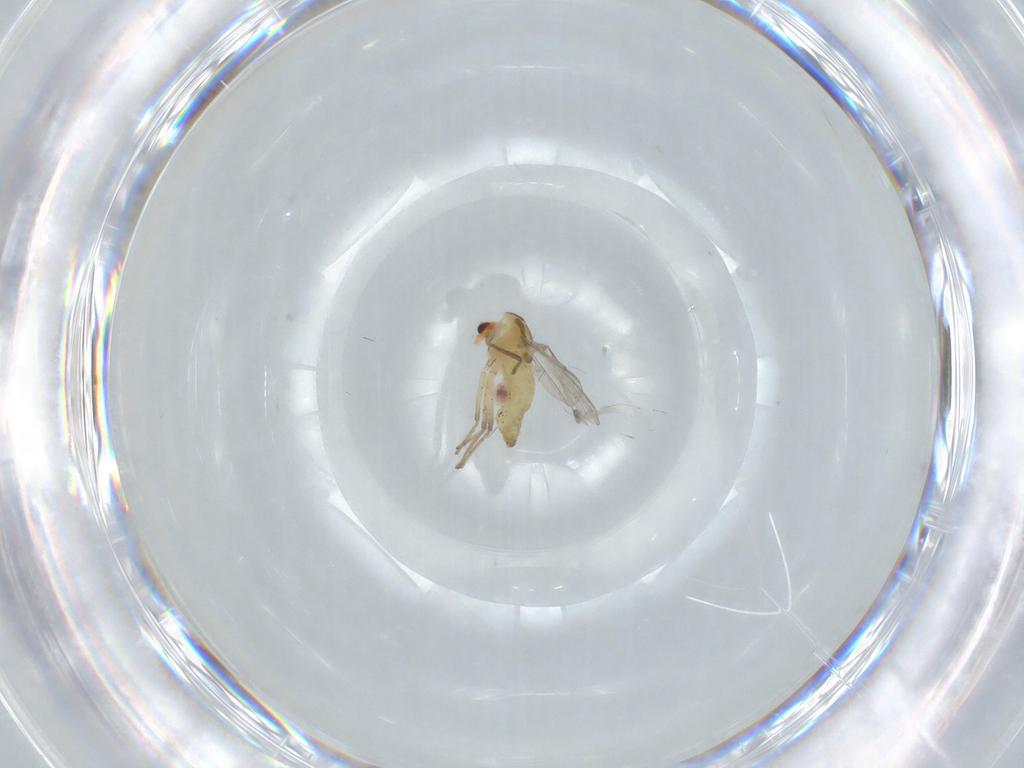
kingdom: Animalia
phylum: Arthropoda
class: Insecta
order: Diptera
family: Chironomidae
